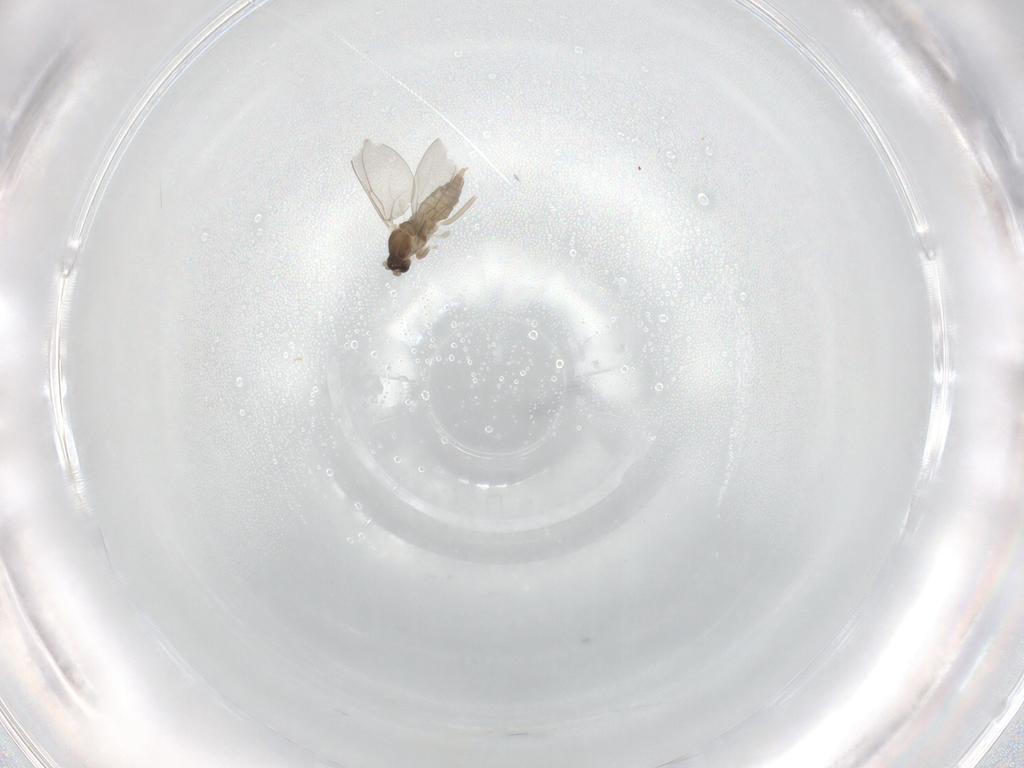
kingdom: Animalia
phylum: Arthropoda
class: Insecta
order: Diptera
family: Cecidomyiidae
